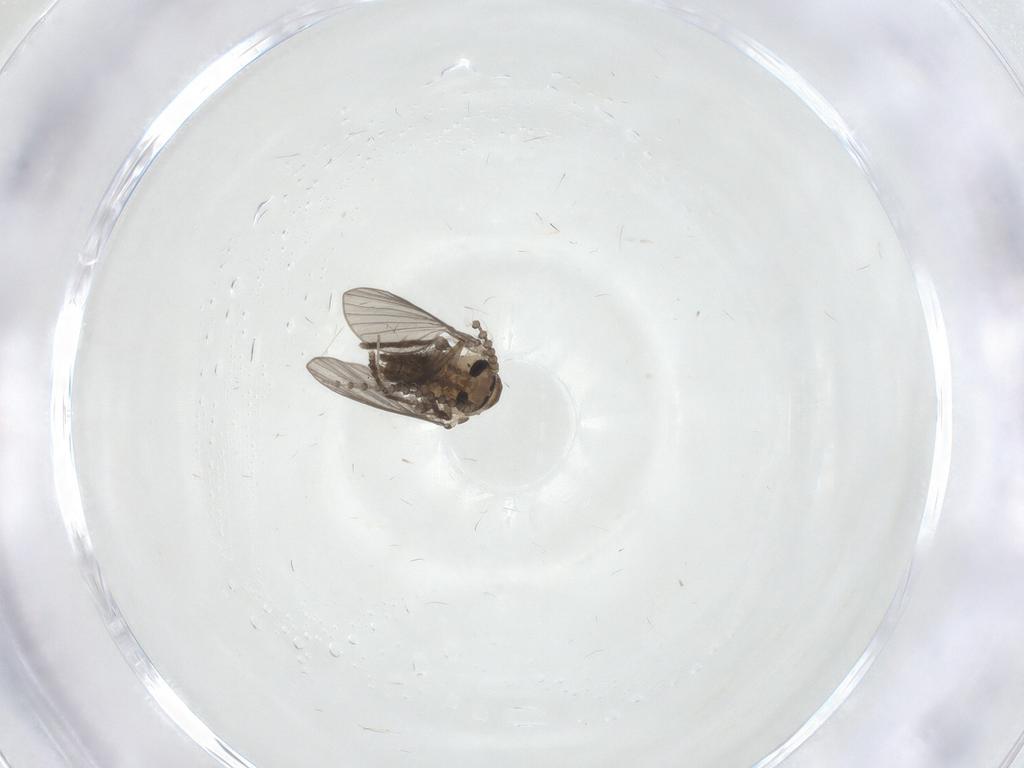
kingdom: Animalia
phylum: Arthropoda
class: Insecta
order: Diptera
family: Psychodidae
